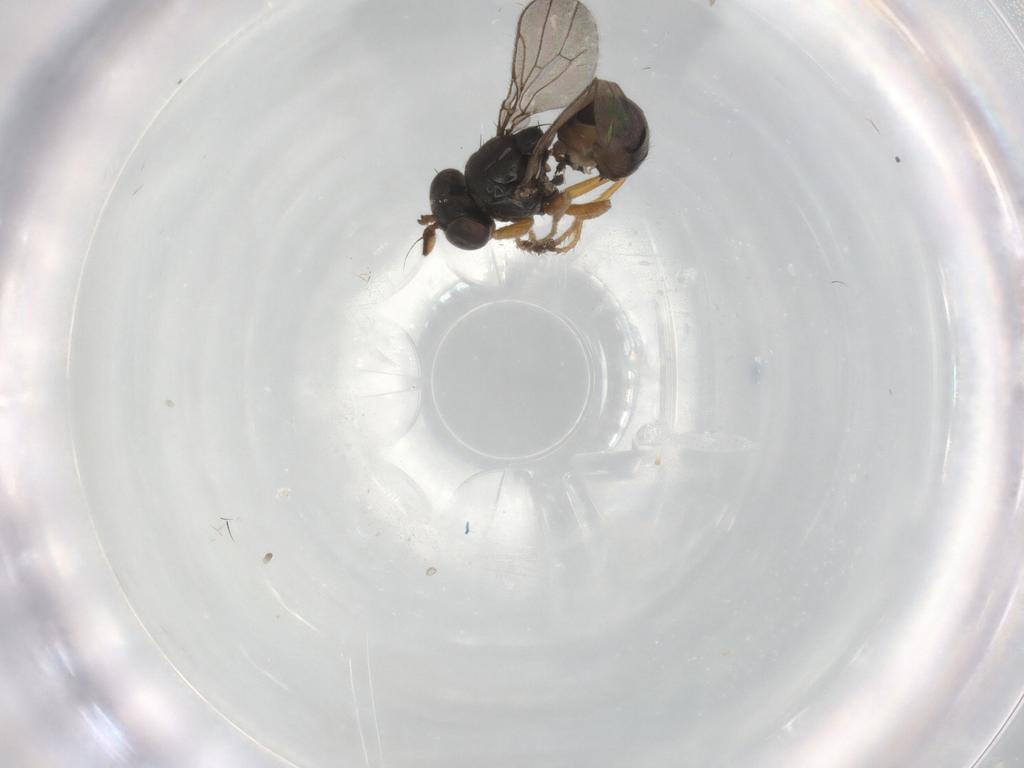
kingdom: Animalia
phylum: Arthropoda
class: Insecta
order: Diptera
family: Ephydridae
